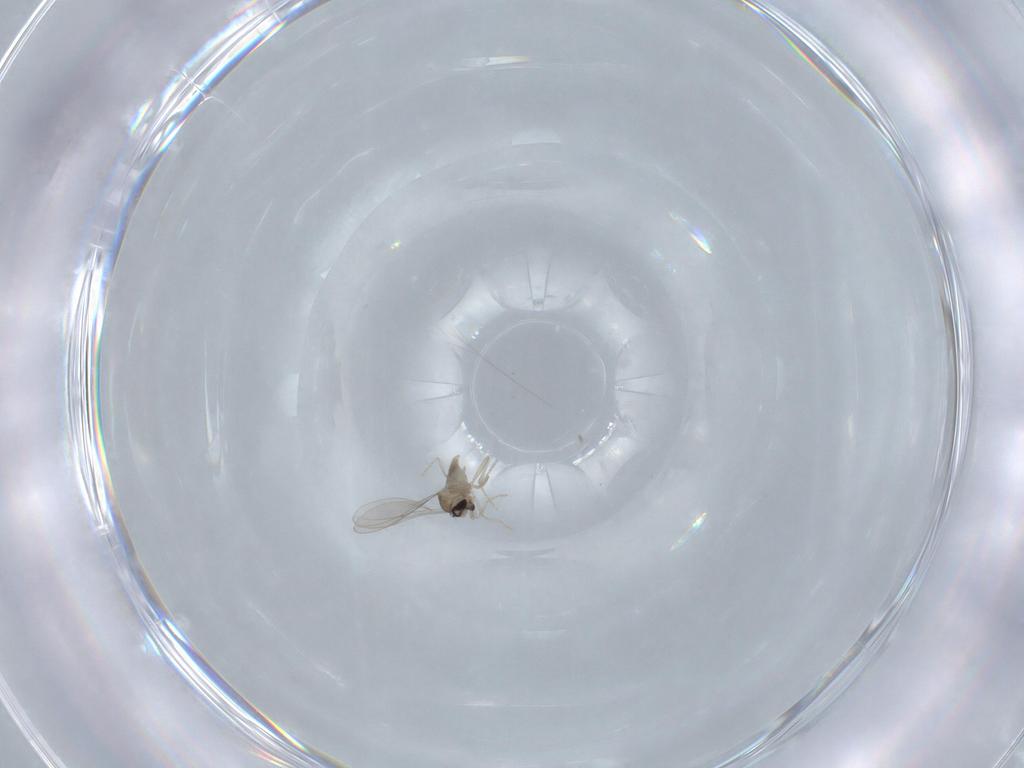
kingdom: Animalia
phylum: Arthropoda
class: Insecta
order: Diptera
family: Cecidomyiidae
